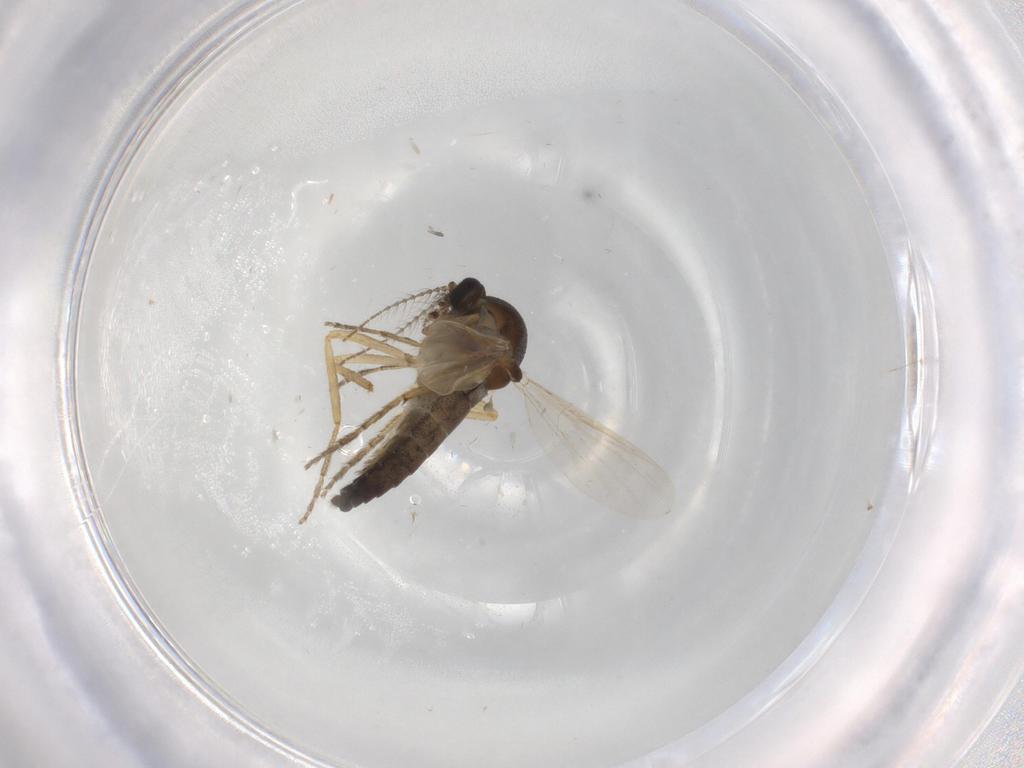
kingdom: Animalia
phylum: Arthropoda
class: Insecta
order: Diptera
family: Ceratopogonidae
